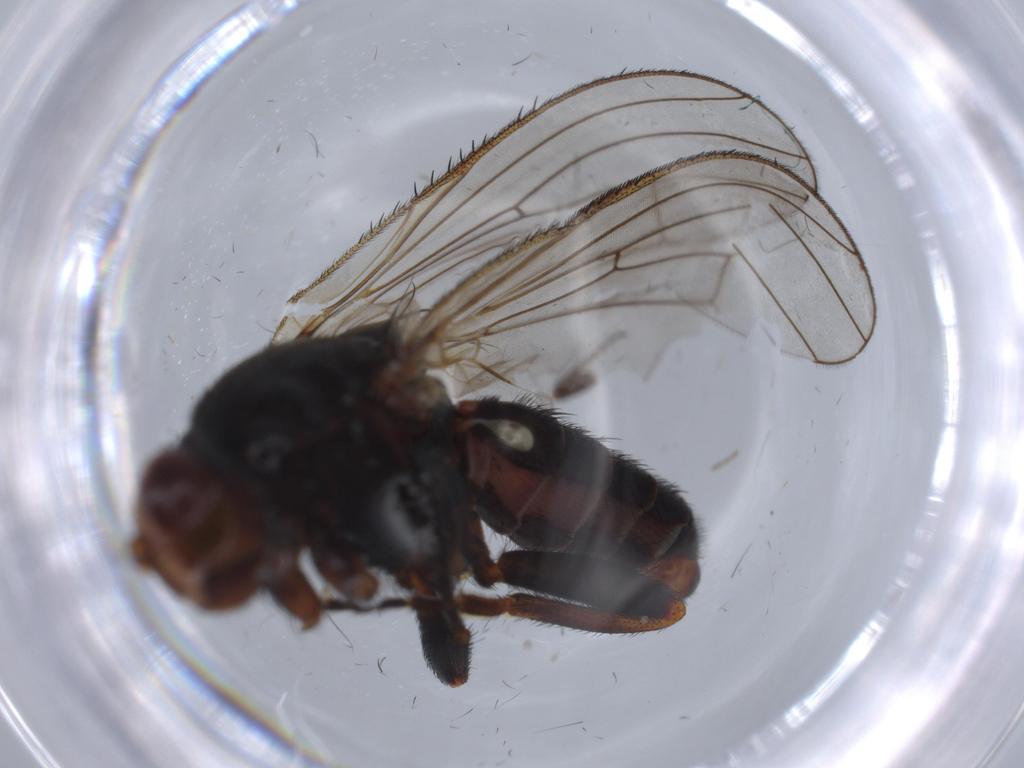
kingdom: Animalia
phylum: Arthropoda
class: Insecta
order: Diptera
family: Heleomyzidae
